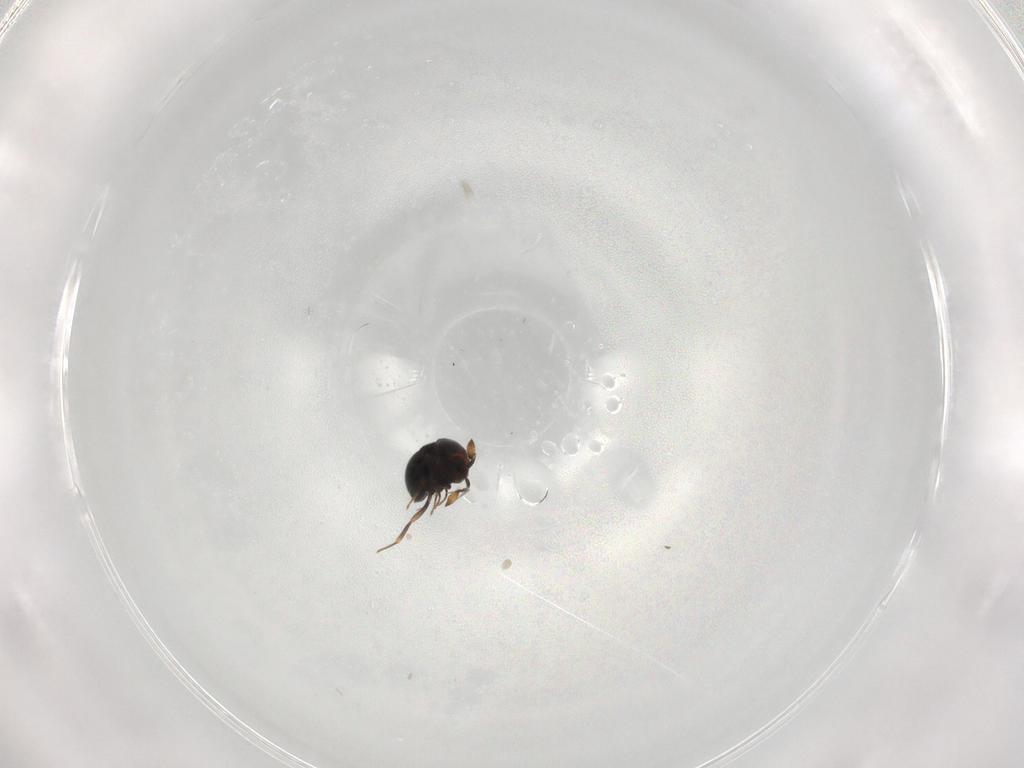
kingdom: Animalia
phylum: Arthropoda
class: Insecta
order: Hymenoptera
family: Scelionidae
